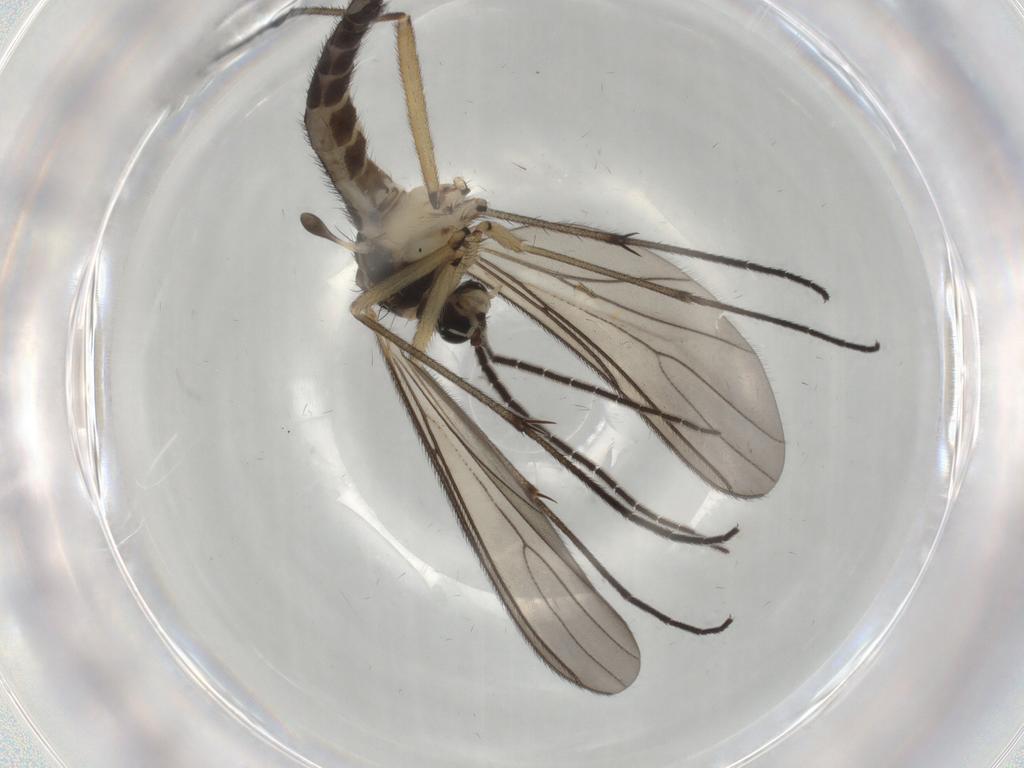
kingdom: Animalia
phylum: Arthropoda
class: Insecta
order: Diptera
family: Sciaridae
